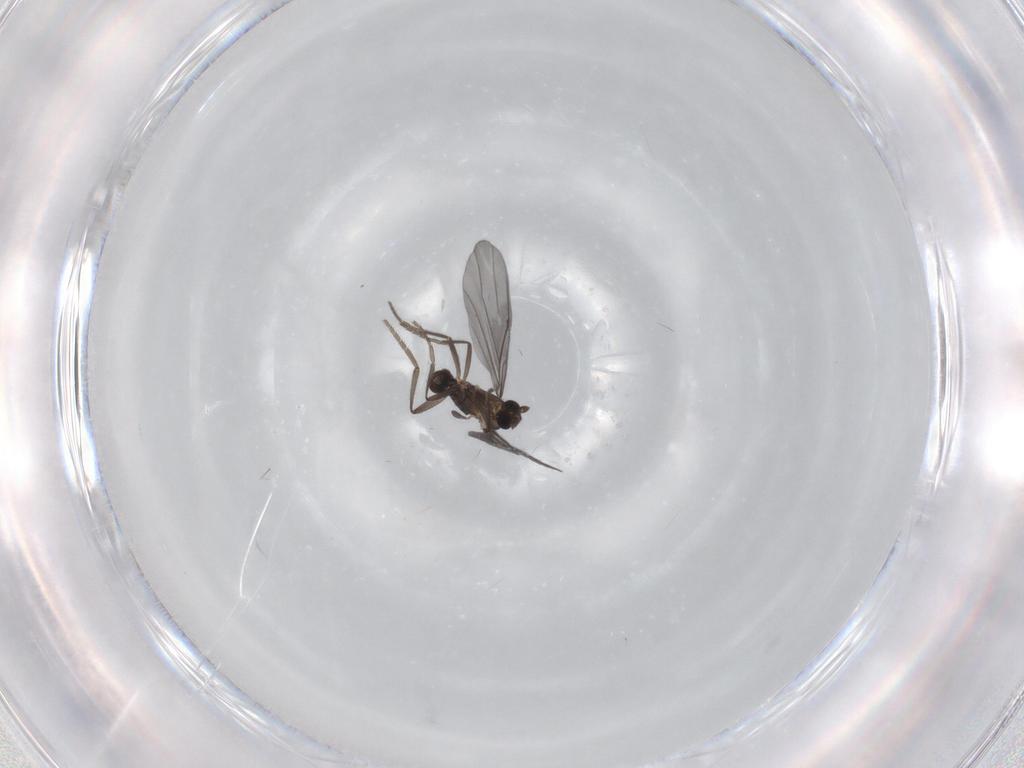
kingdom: Animalia
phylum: Arthropoda
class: Insecta
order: Diptera
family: Phoridae
